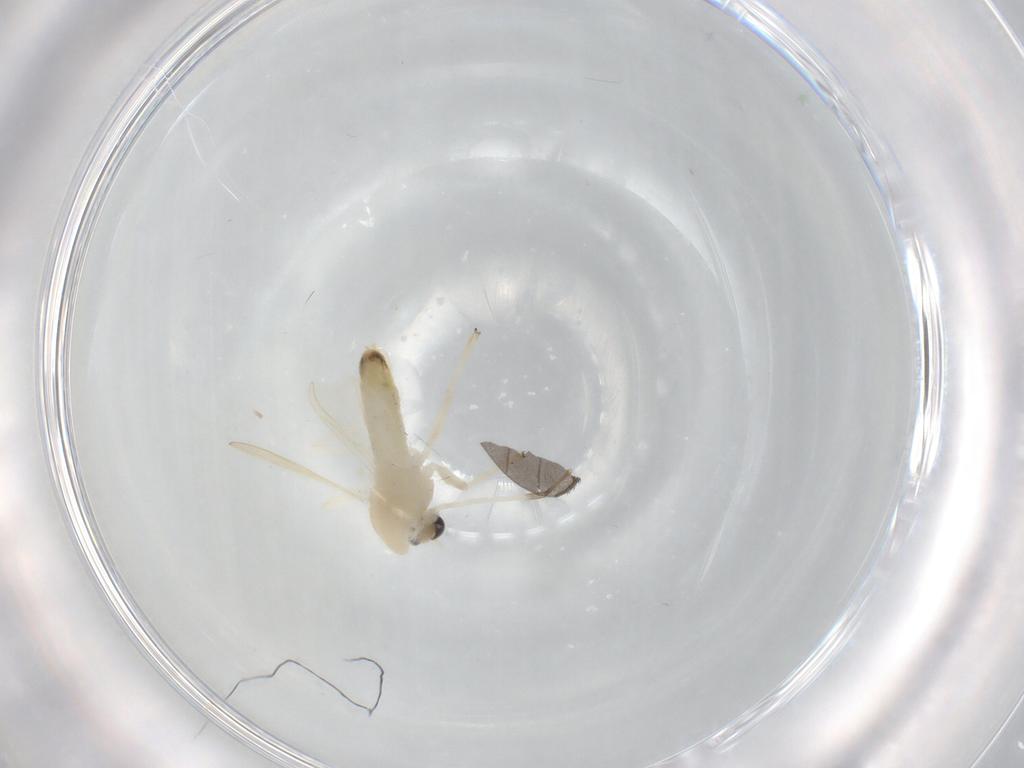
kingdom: Animalia
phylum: Arthropoda
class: Insecta
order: Diptera
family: Chironomidae
